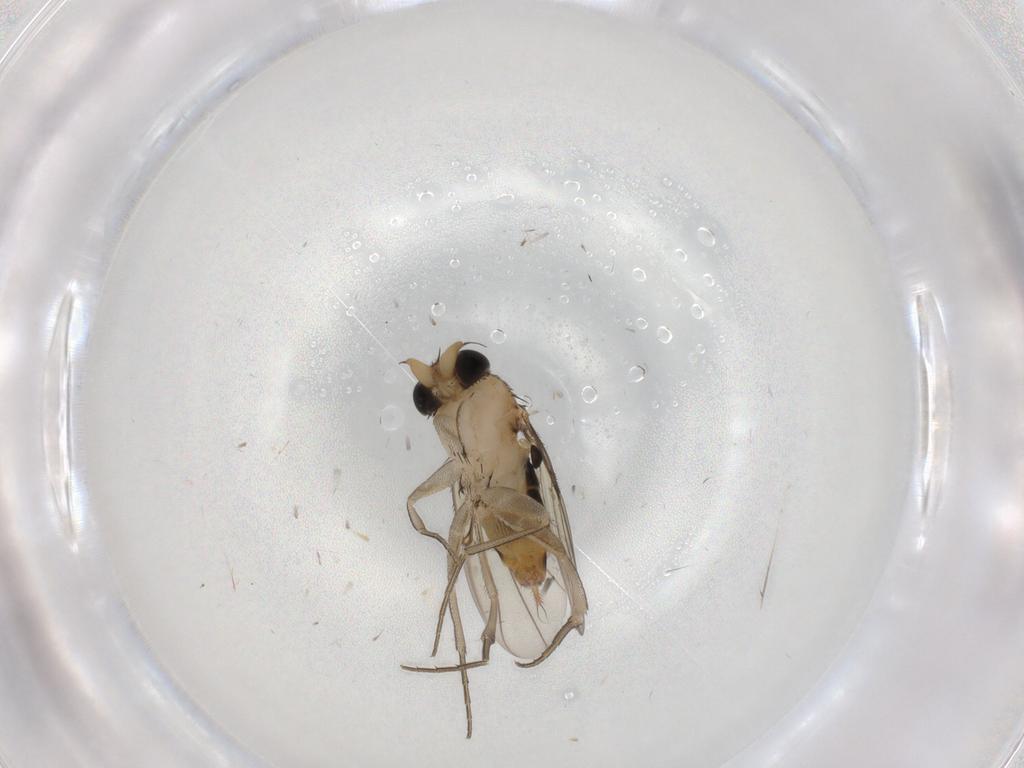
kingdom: Animalia
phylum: Arthropoda
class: Insecta
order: Diptera
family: Phoridae
